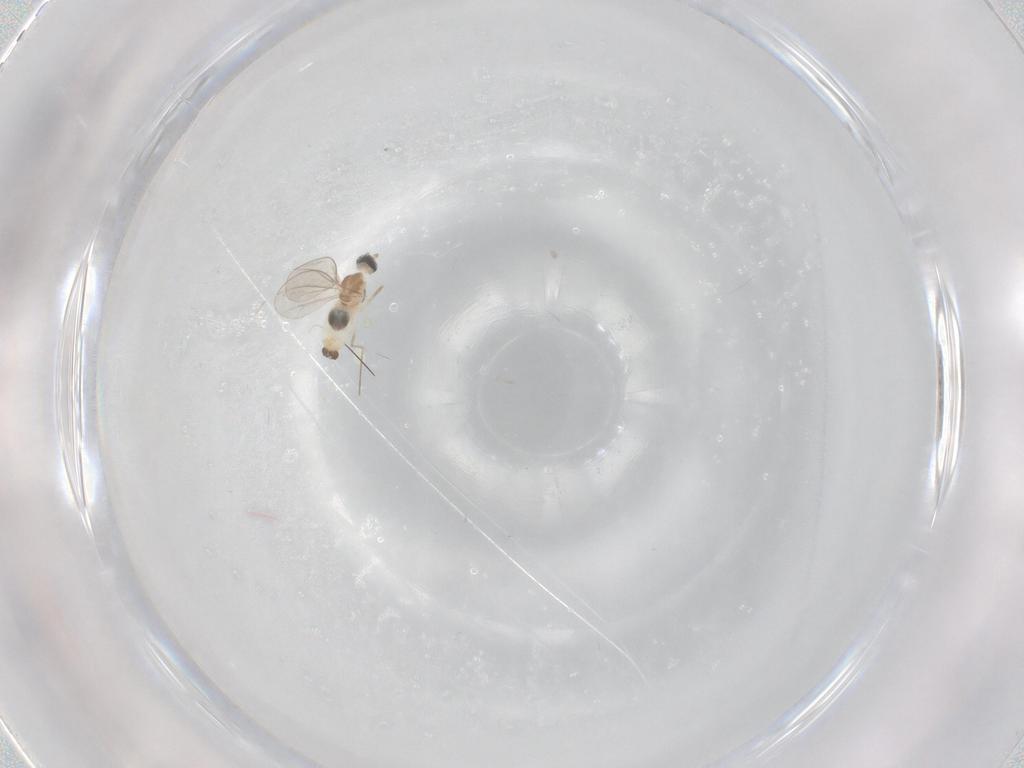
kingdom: Animalia
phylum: Arthropoda
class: Insecta
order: Diptera
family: Cecidomyiidae
